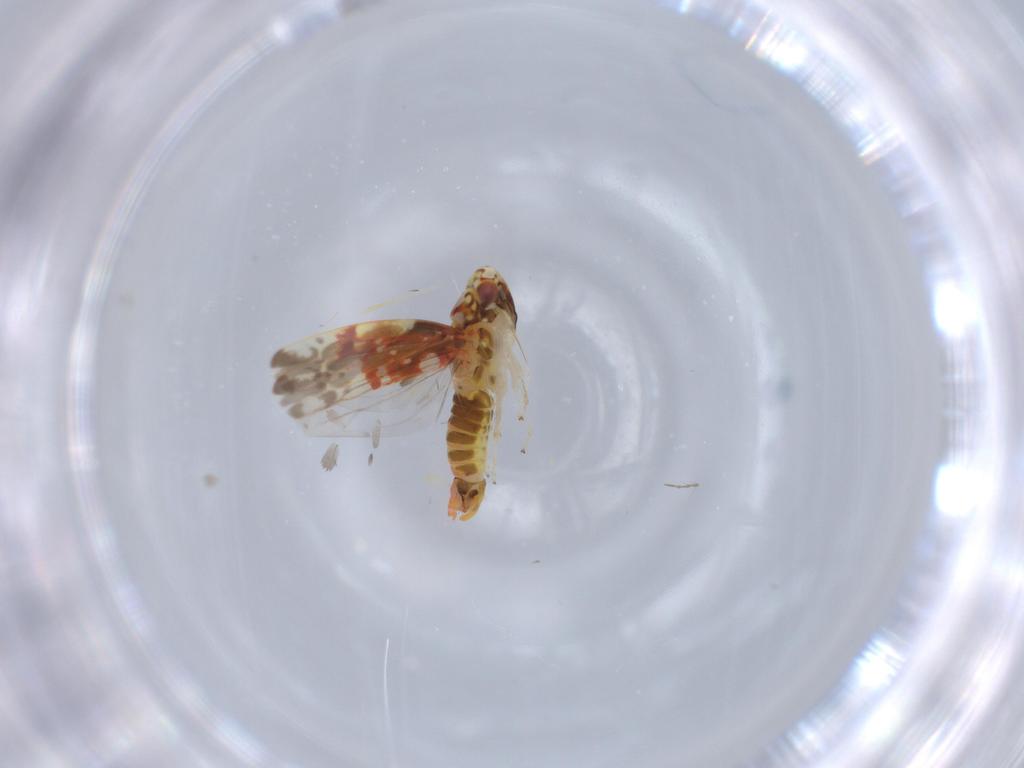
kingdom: Animalia
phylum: Arthropoda
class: Insecta
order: Hemiptera
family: Cicadellidae
